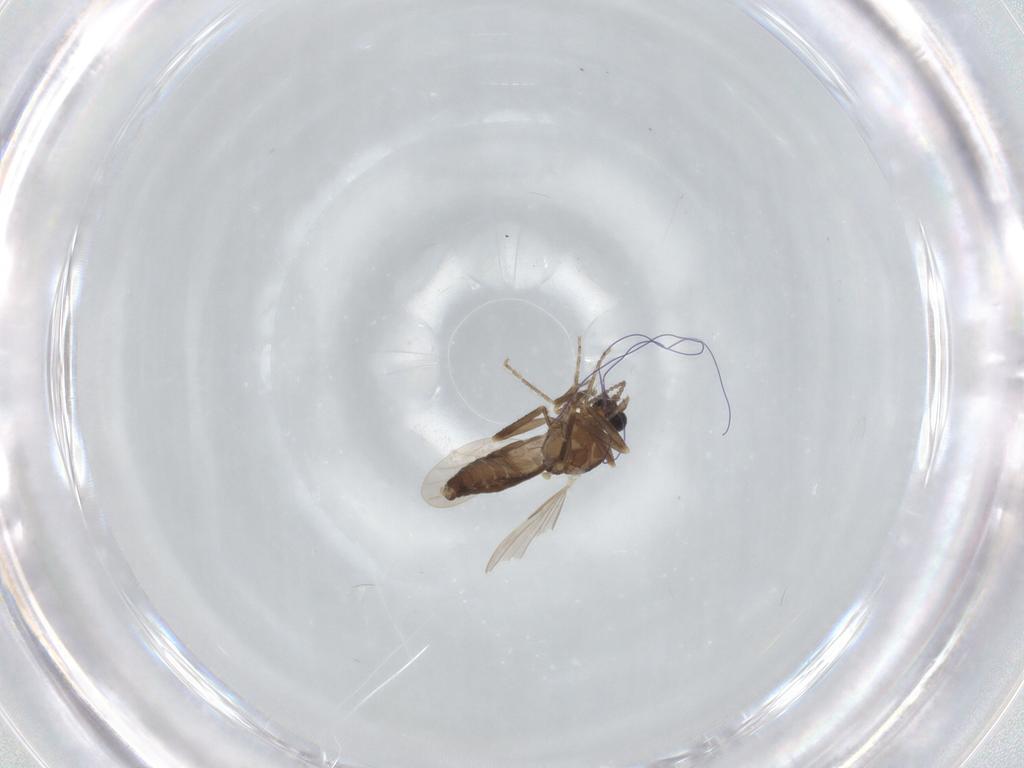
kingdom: Animalia
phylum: Arthropoda
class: Insecta
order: Diptera
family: Ceratopogonidae
